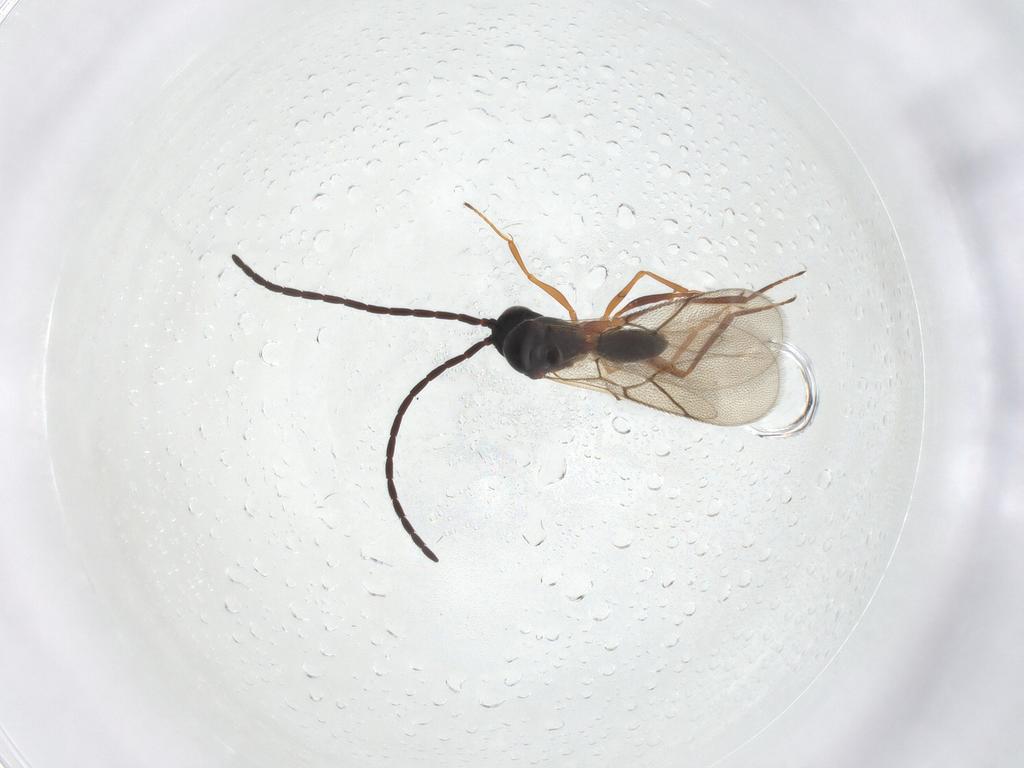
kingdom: Animalia
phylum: Arthropoda
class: Insecta
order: Hymenoptera
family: Figitidae
